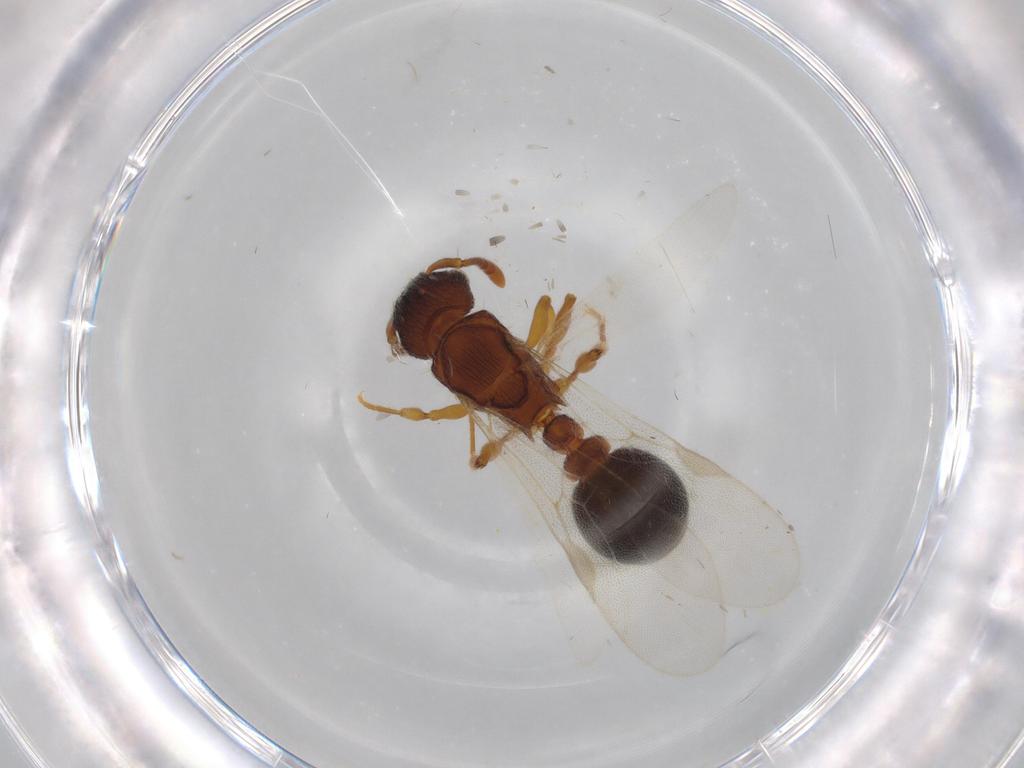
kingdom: Animalia
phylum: Arthropoda
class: Insecta
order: Hymenoptera
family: Formicidae
